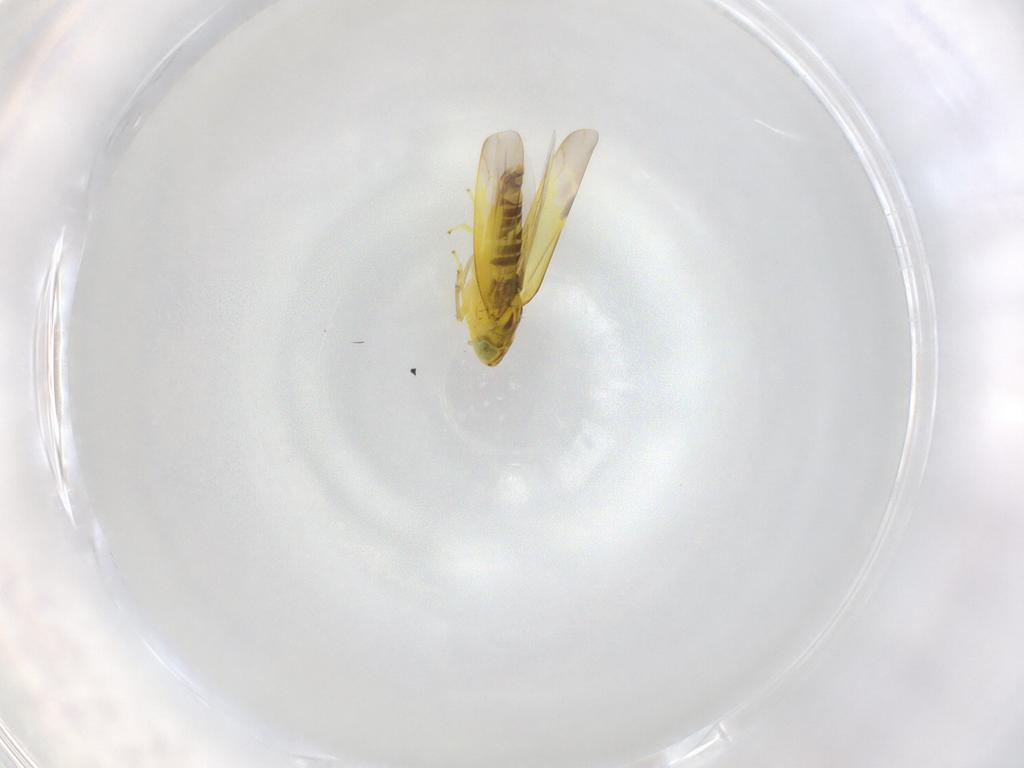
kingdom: Animalia
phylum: Arthropoda
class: Insecta
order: Hemiptera
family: Cicadellidae
